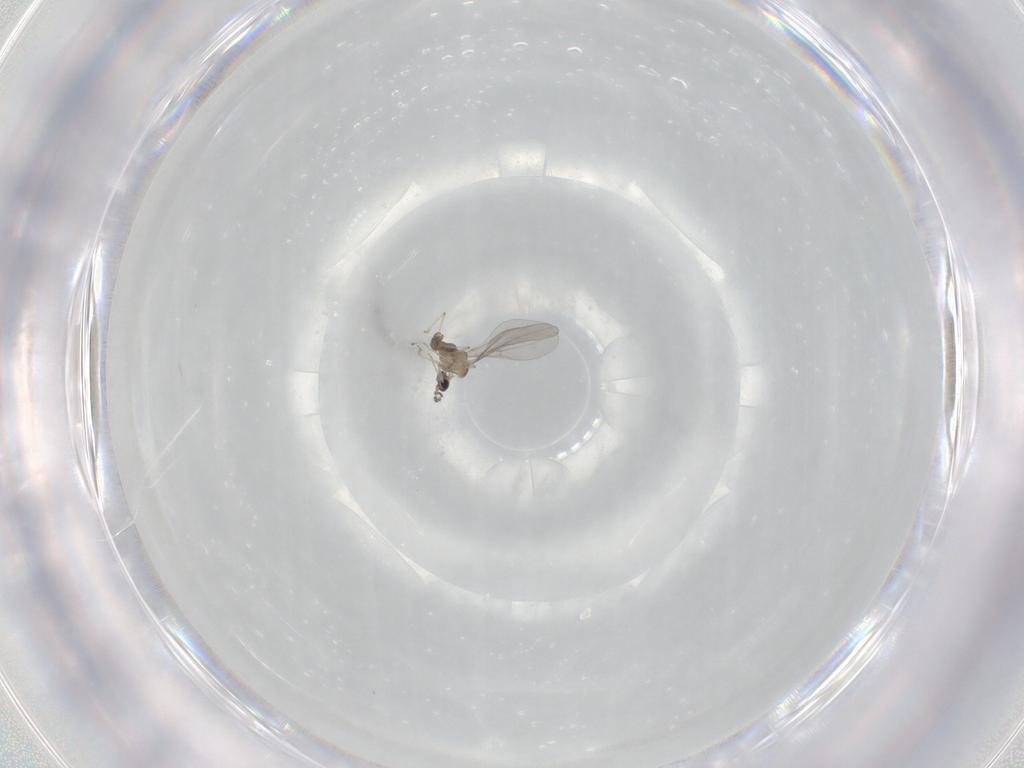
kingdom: Animalia
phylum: Arthropoda
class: Insecta
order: Diptera
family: Cecidomyiidae
